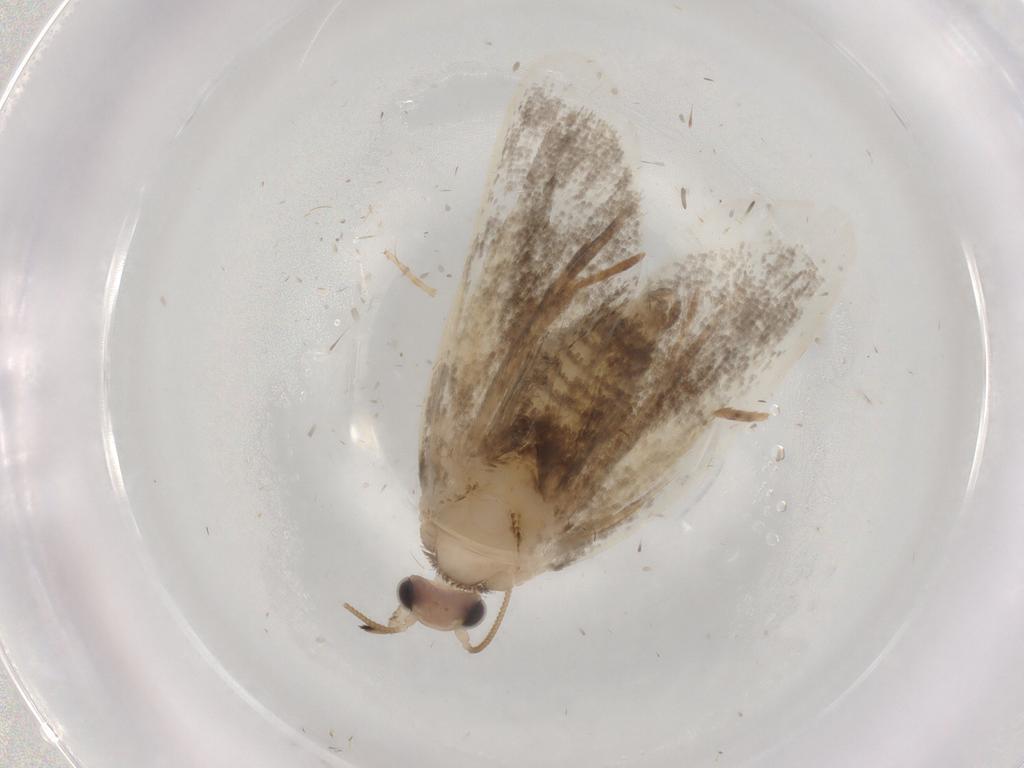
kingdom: Animalia
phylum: Arthropoda
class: Insecta
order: Lepidoptera
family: Psychidae
